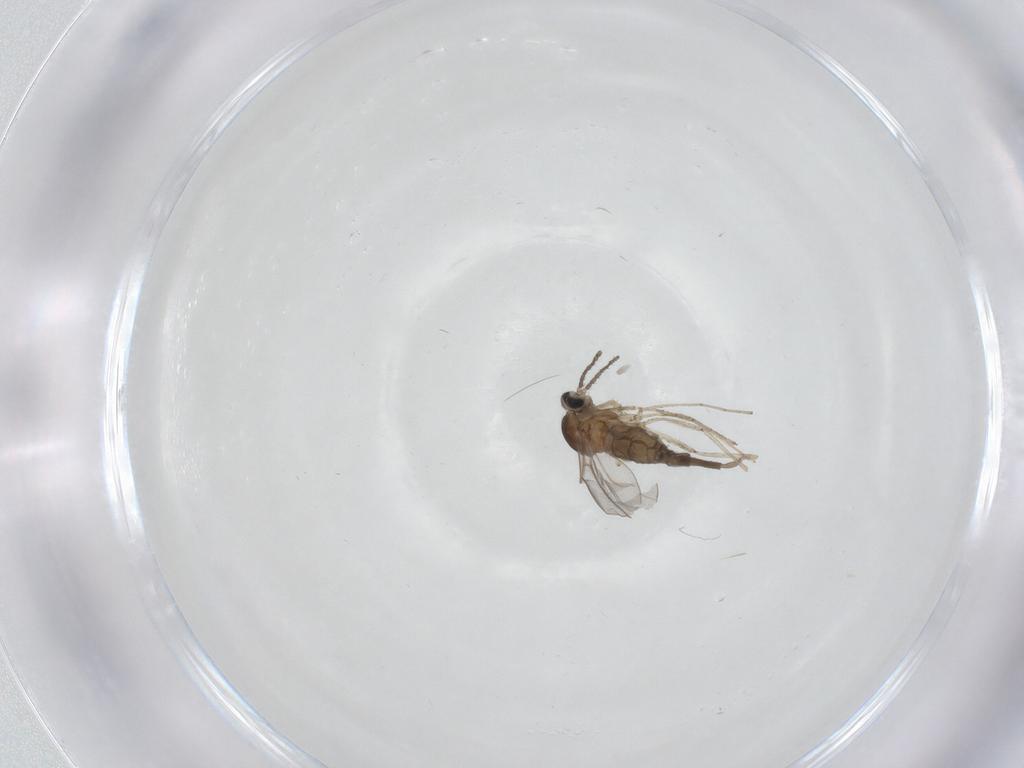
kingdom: Animalia
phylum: Arthropoda
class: Insecta
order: Diptera
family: Cecidomyiidae
